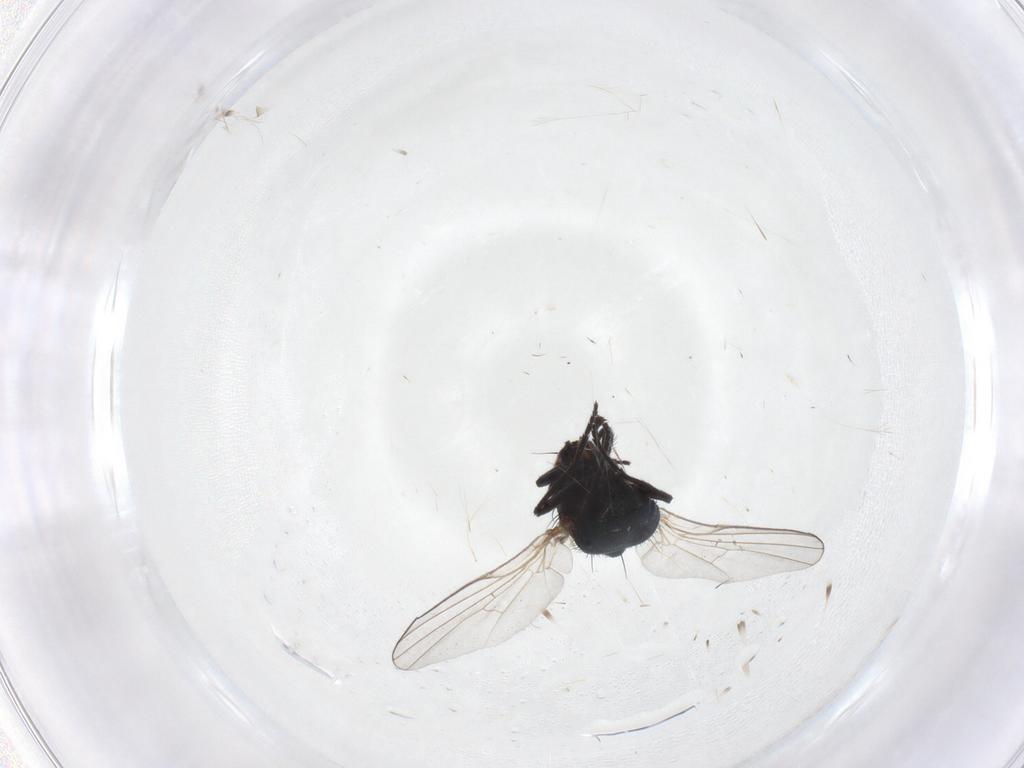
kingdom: Animalia
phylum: Arthropoda
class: Insecta
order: Diptera
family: Agromyzidae
